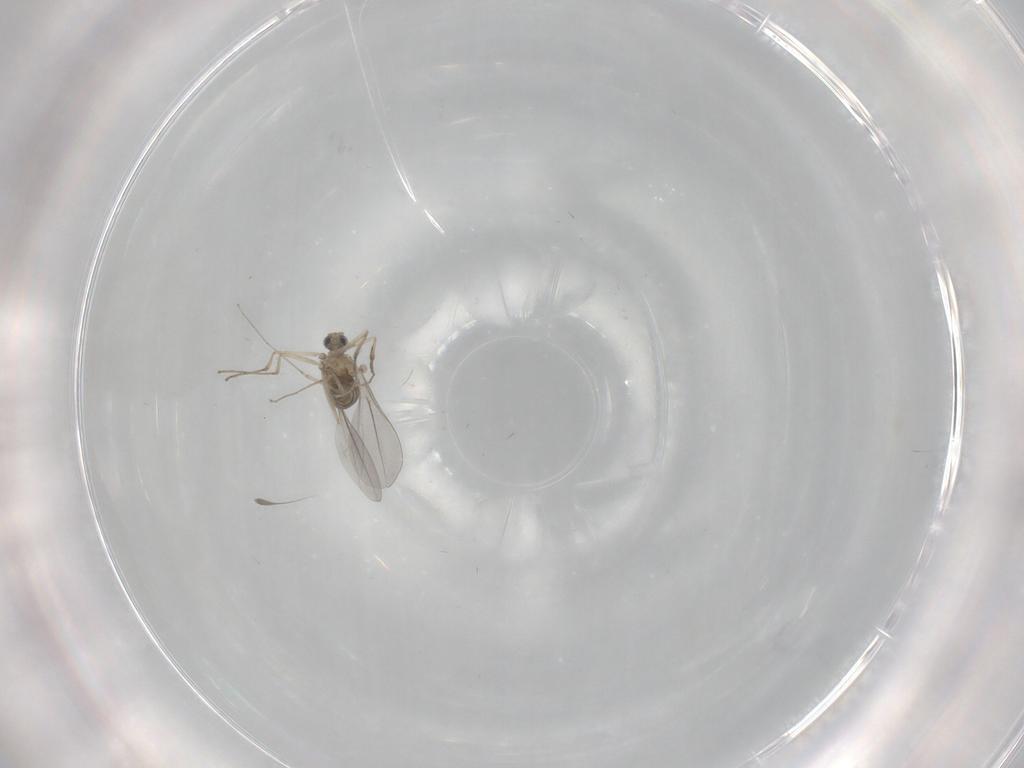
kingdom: Animalia
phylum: Arthropoda
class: Insecta
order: Diptera
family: Cecidomyiidae
